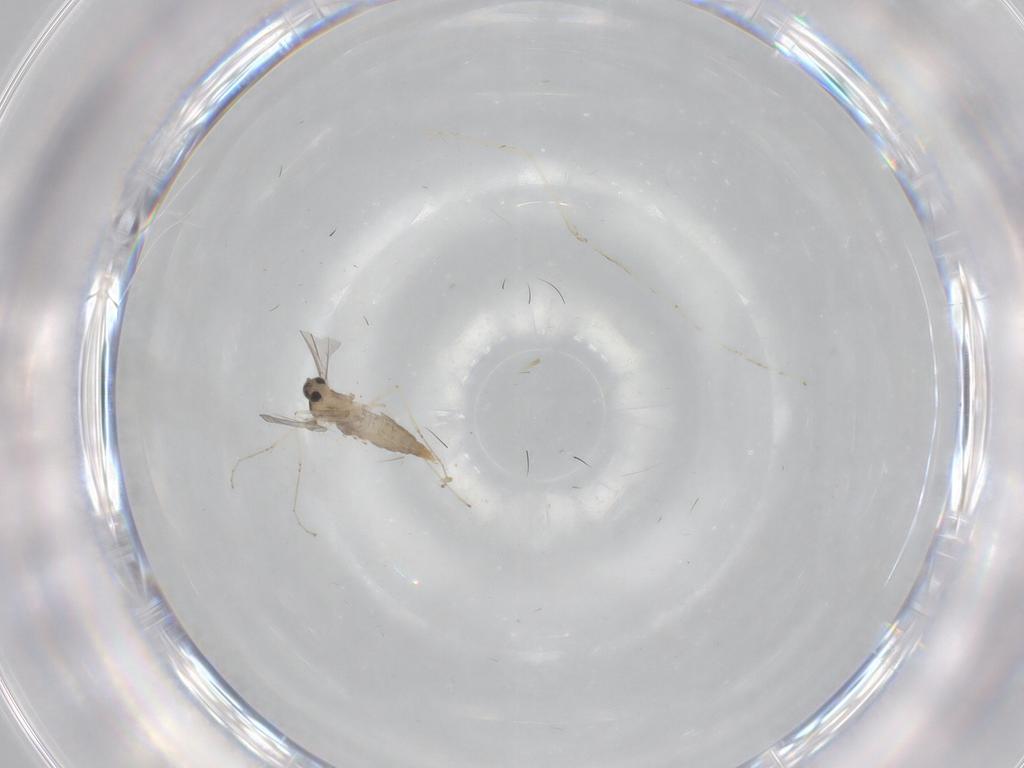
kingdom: Animalia
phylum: Arthropoda
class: Insecta
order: Diptera
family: Cecidomyiidae
